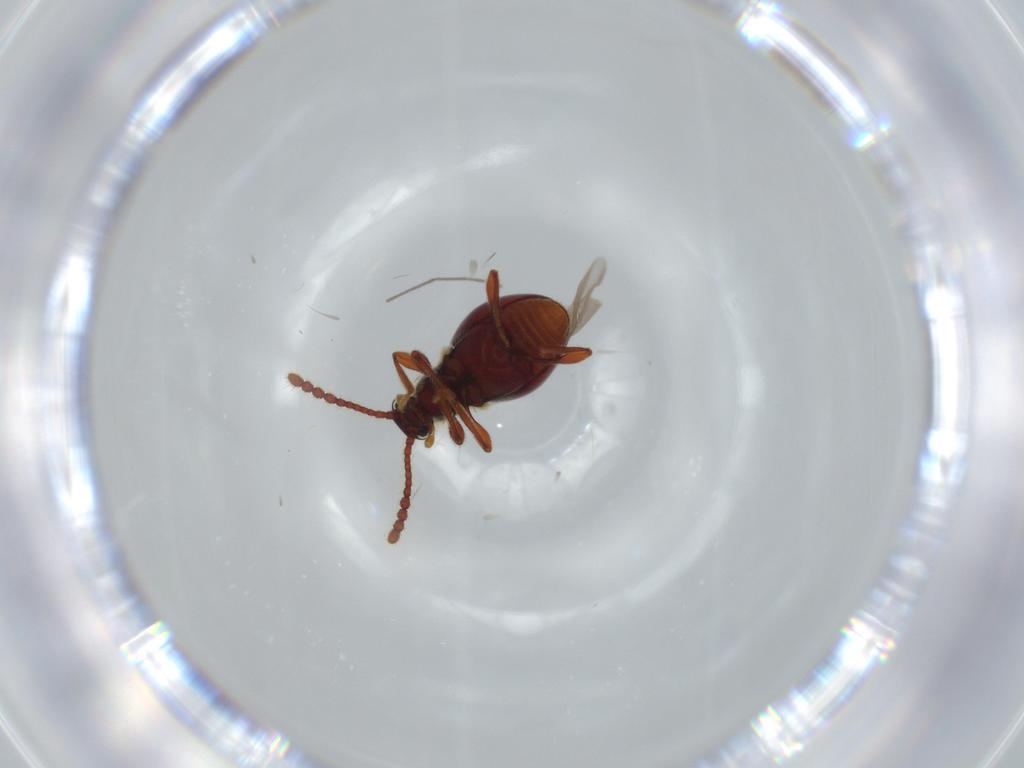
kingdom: Animalia
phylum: Arthropoda
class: Insecta
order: Coleoptera
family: Staphylinidae
